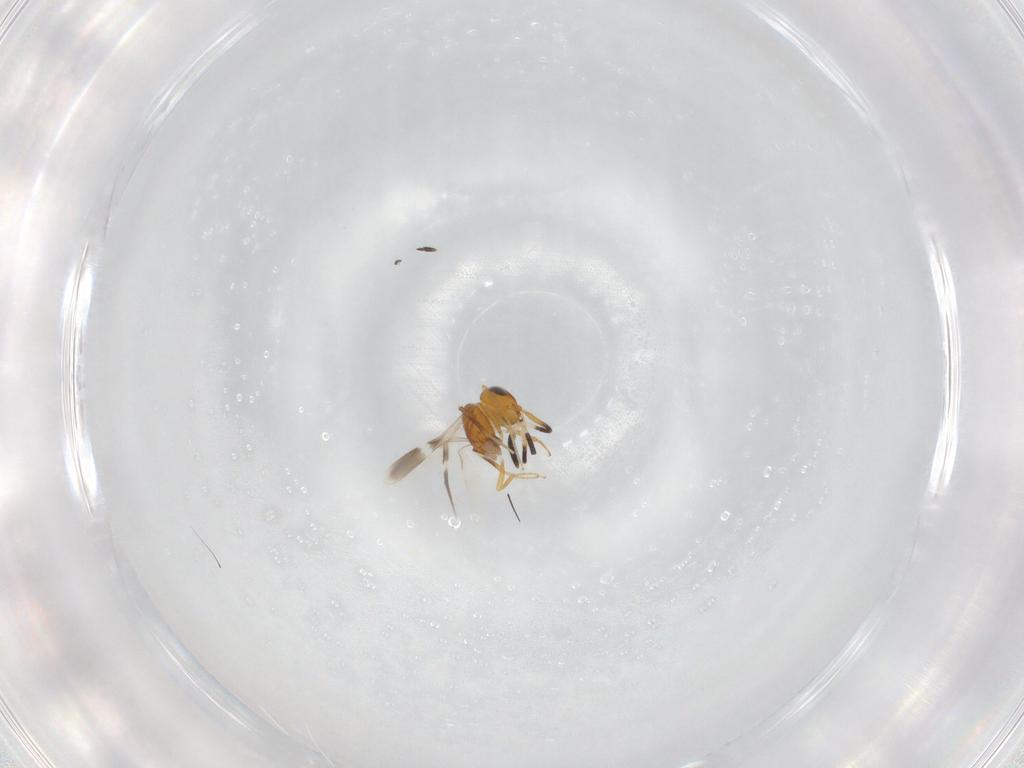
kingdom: Animalia
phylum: Arthropoda
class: Insecta
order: Hymenoptera
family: Scelionidae
